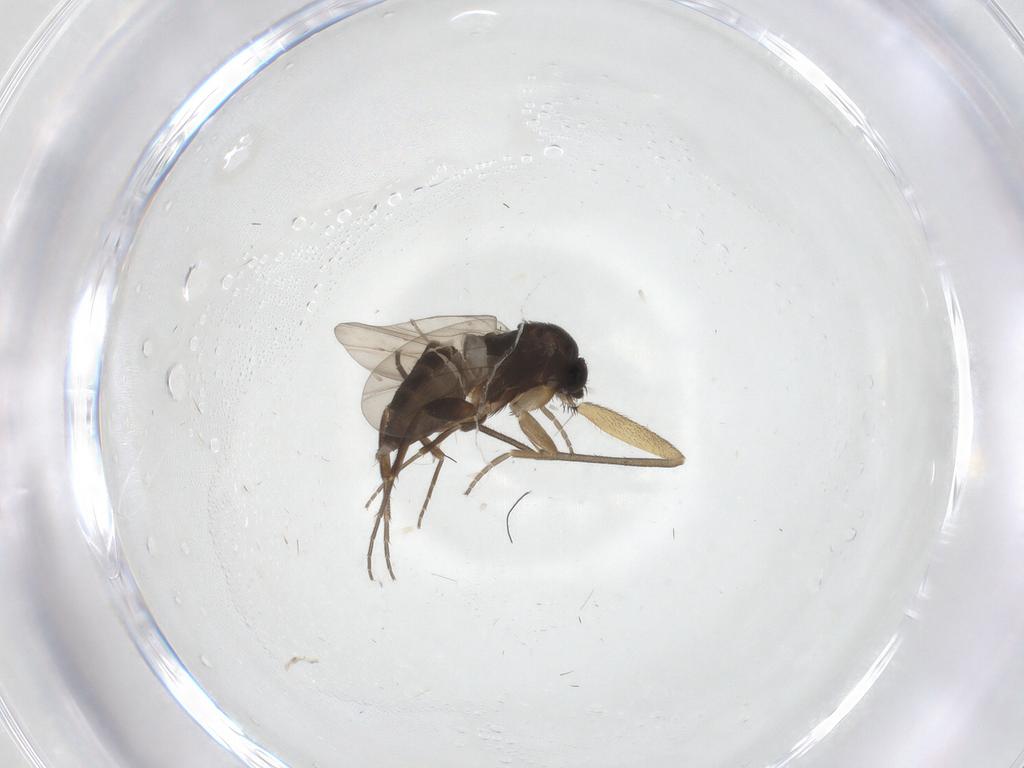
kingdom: Animalia
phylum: Arthropoda
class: Insecta
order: Diptera
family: Phoridae
